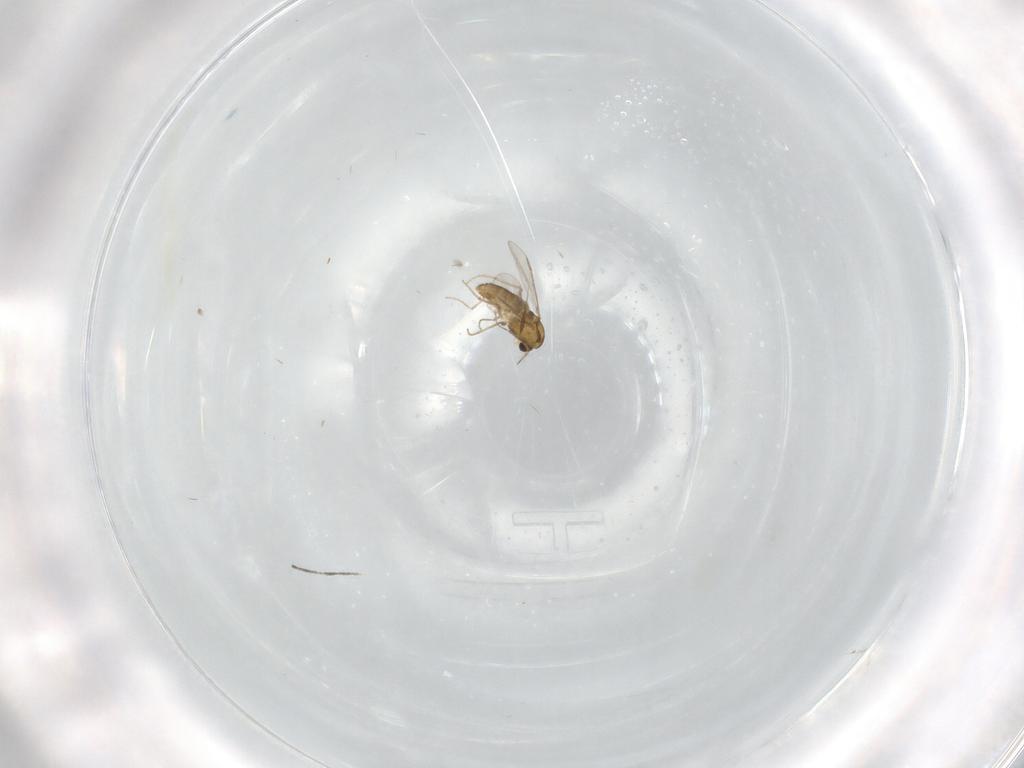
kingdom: Animalia
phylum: Arthropoda
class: Insecta
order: Diptera
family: Chironomidae
